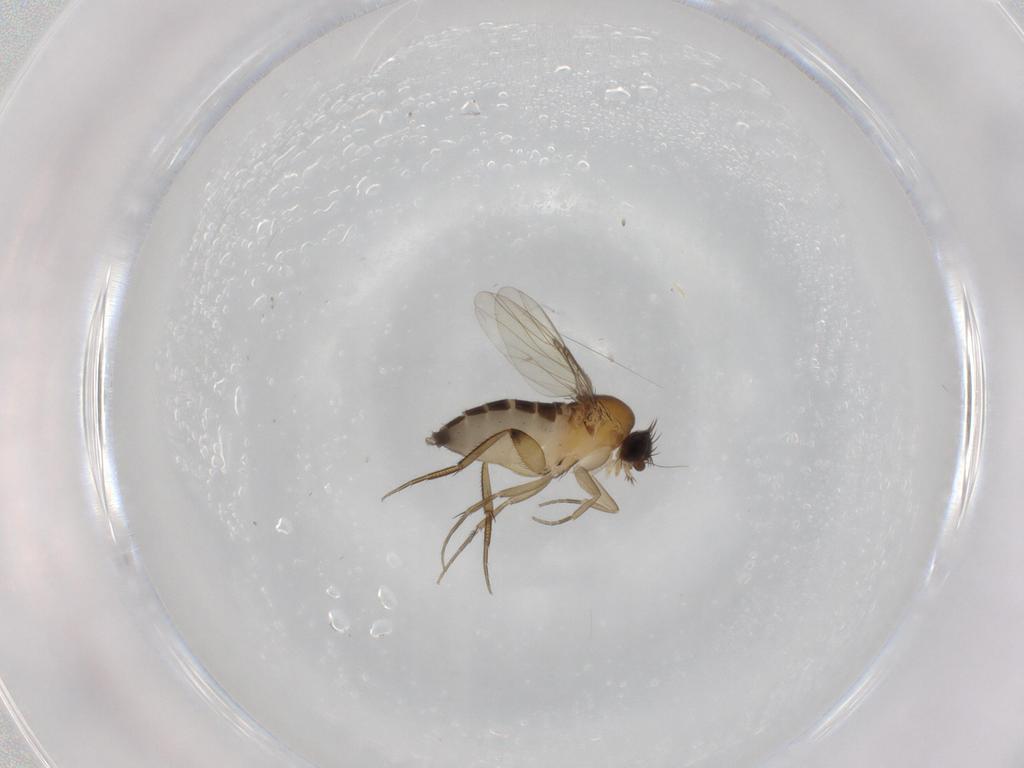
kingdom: Animalia
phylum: Arthropoda
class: Insecta
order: Diptera
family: Phoridae
